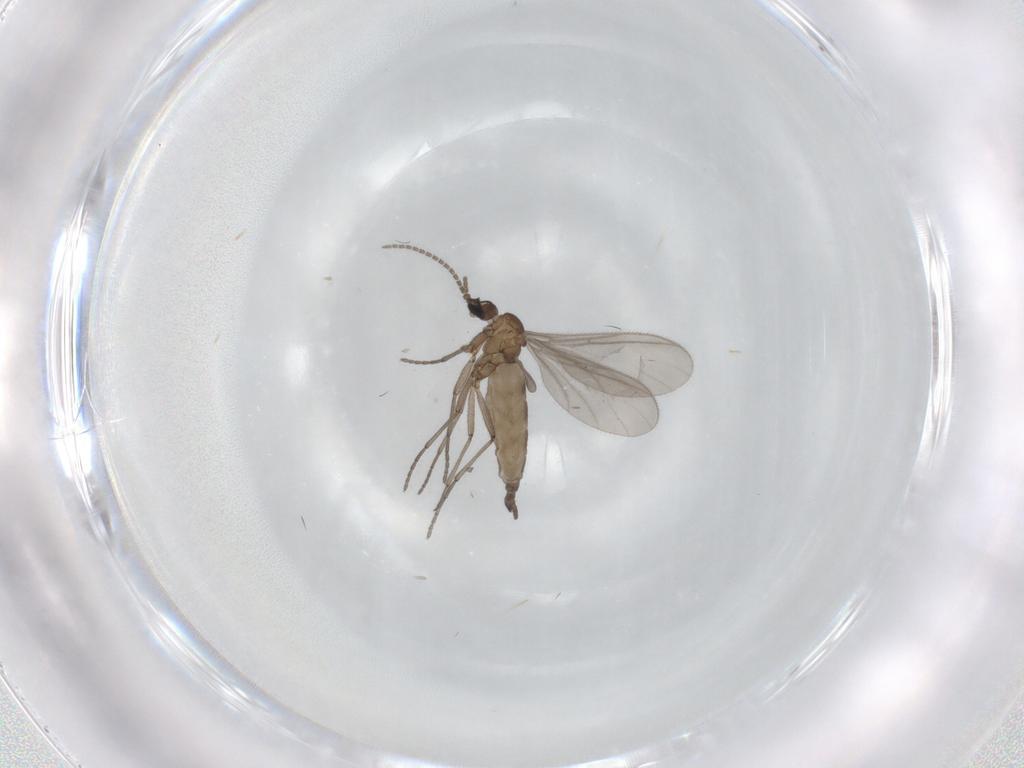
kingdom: Animalia
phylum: Arthropoda
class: Insecta
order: Diptera
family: Sciaridae
